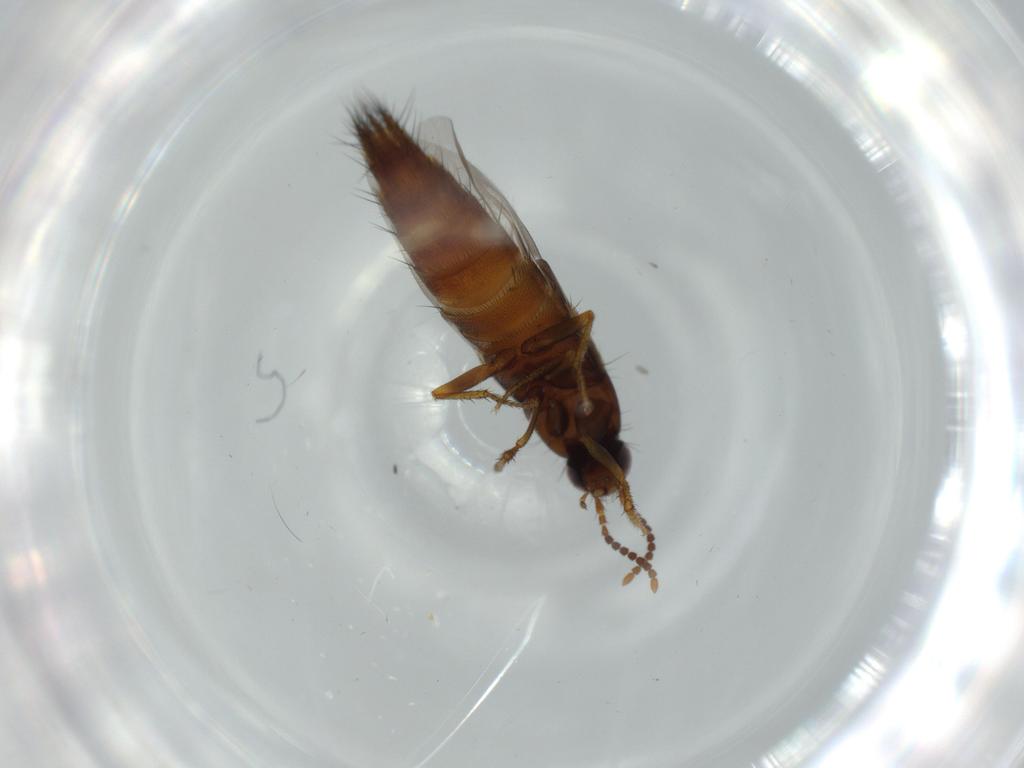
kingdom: Animalia
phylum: Arthropoda
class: Insecta
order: Coleoptera
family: Staphylinidae
